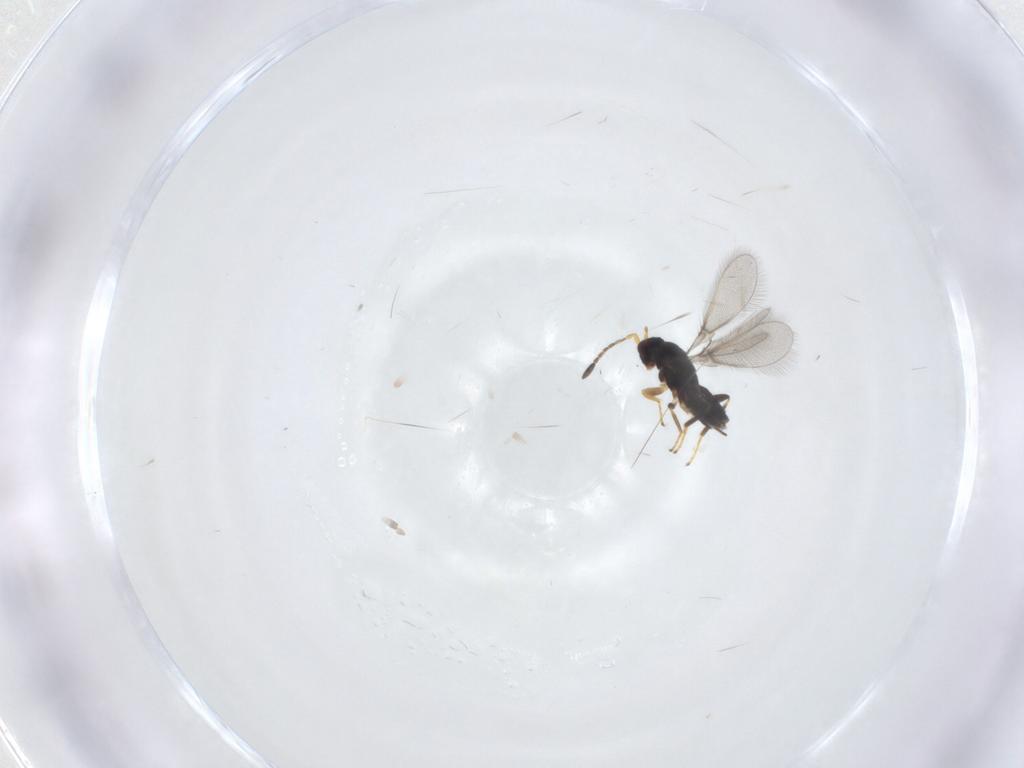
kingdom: Animalia
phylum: Arthropoda
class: Insecta
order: Hymenoptera
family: Mymaridae
